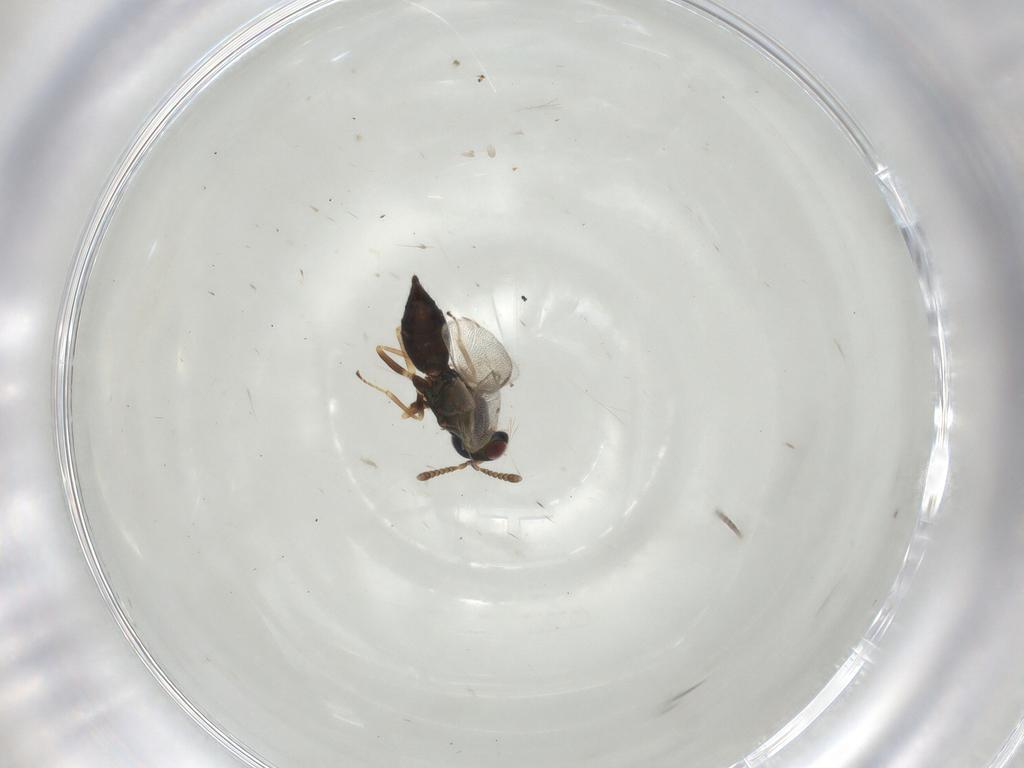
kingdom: Animalia
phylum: Arthropoda
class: Insecta
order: Hymenoptera
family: Pteromalidae
